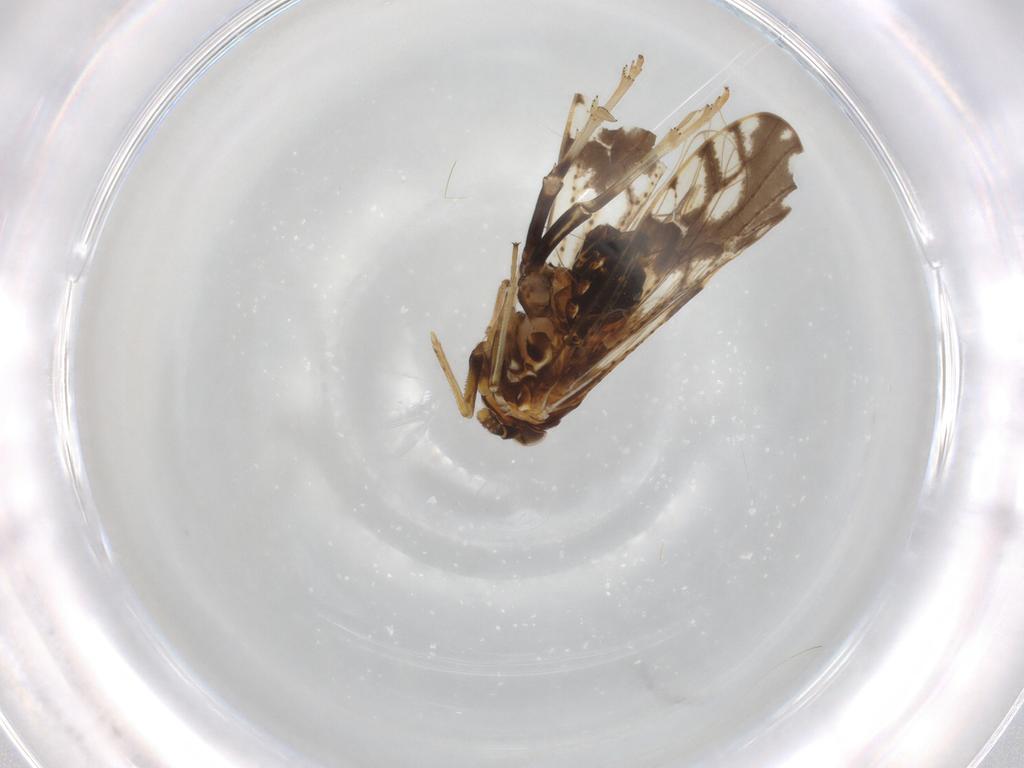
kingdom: Animalia
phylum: Arthropoda
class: Insecta
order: Hemiptera
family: Delphacidae
